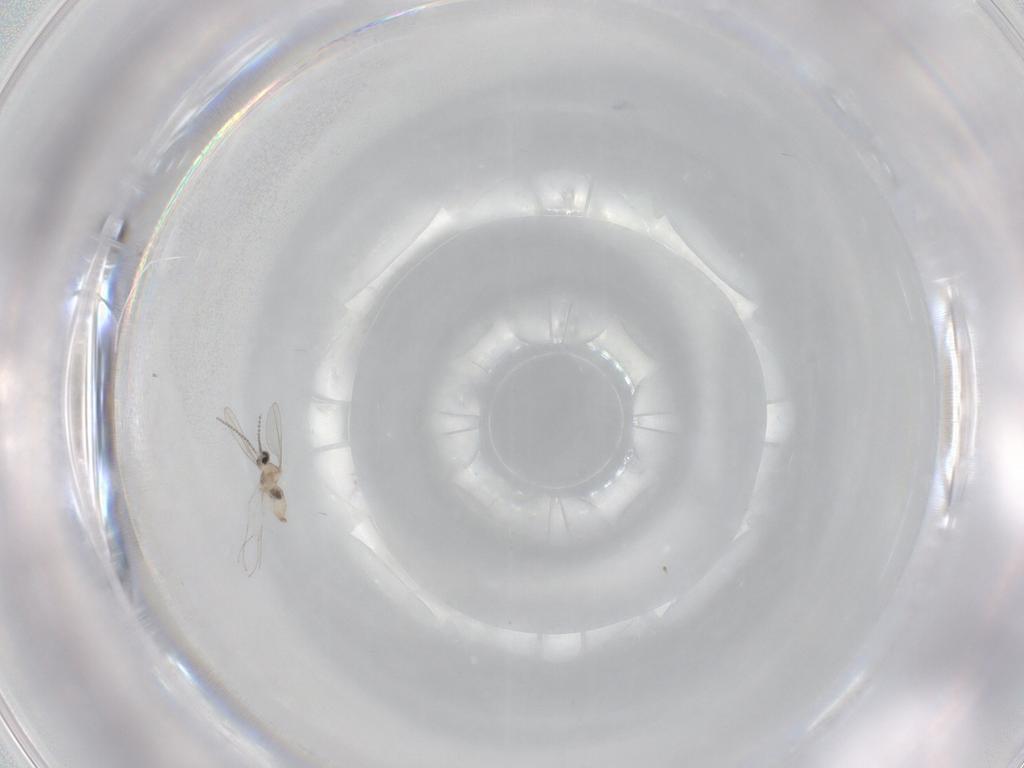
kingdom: Animalia
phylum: Arthropoda
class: Insecta
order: Diptera
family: Cecidomyiidae
